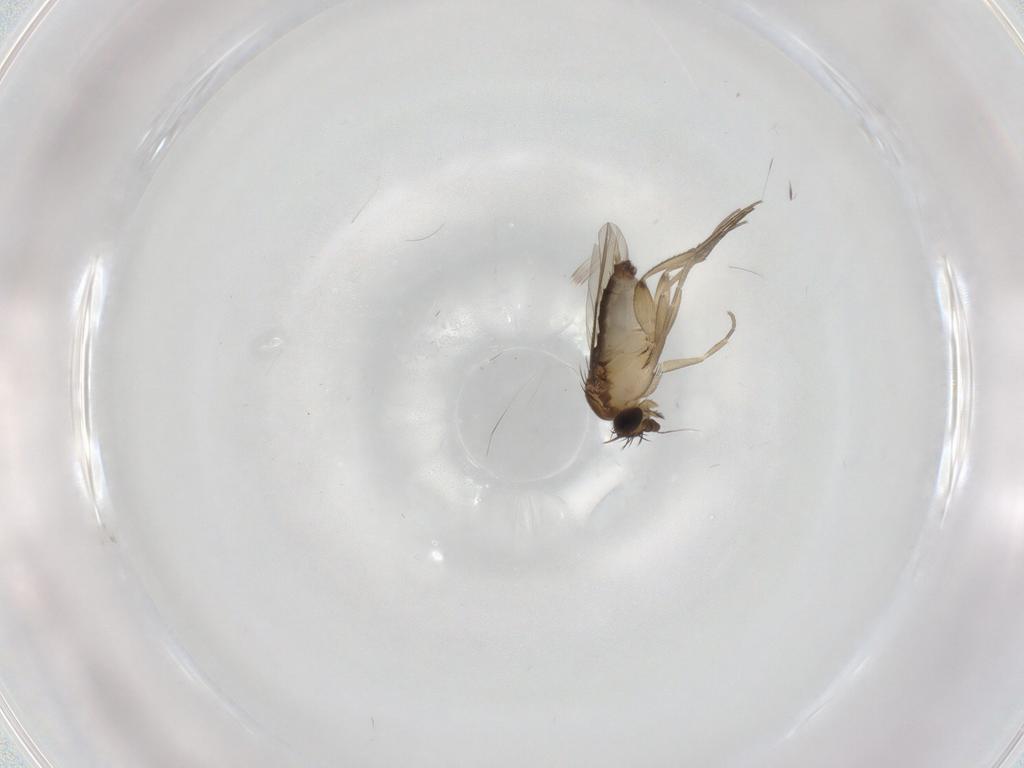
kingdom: Animalia
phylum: Arthropoda
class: Insecta
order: Diptera
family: Phoridae
